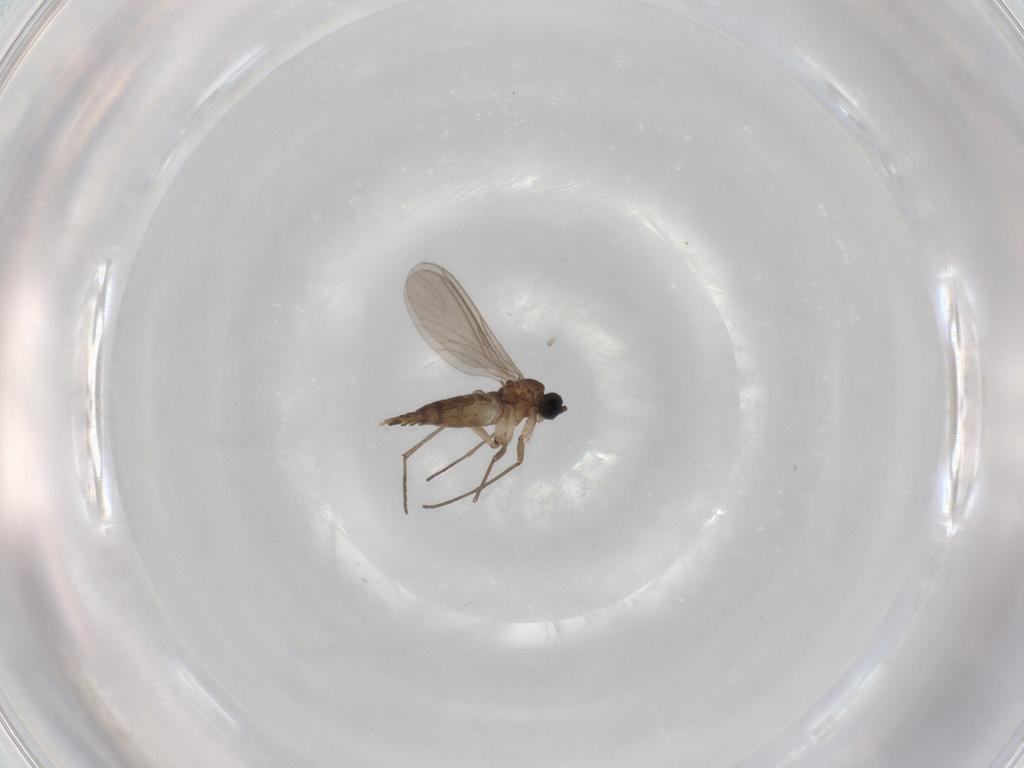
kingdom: Animalia
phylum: Arthropoda
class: Insecta
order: Diptera
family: Cecidomyiidae
